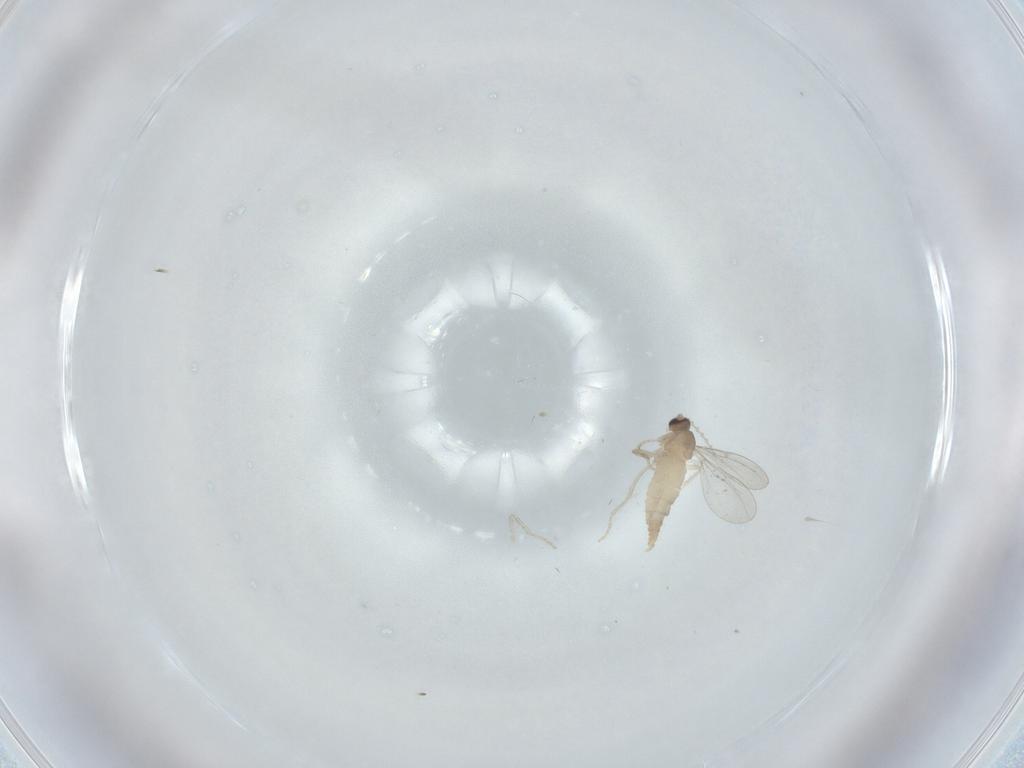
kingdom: Animalia
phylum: Arthropoda
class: Insecta
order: Diptera
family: Cecidomyiidae
